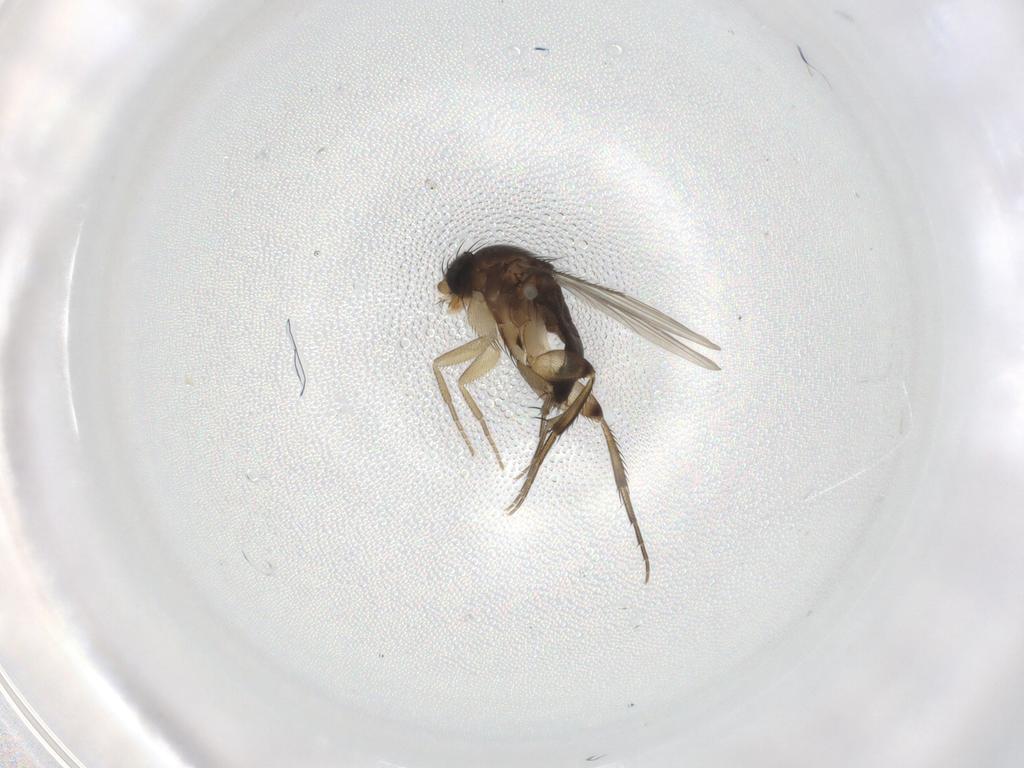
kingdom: Animalia
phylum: Arthropoda
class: Insecta
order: Diptera
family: Phoridae
